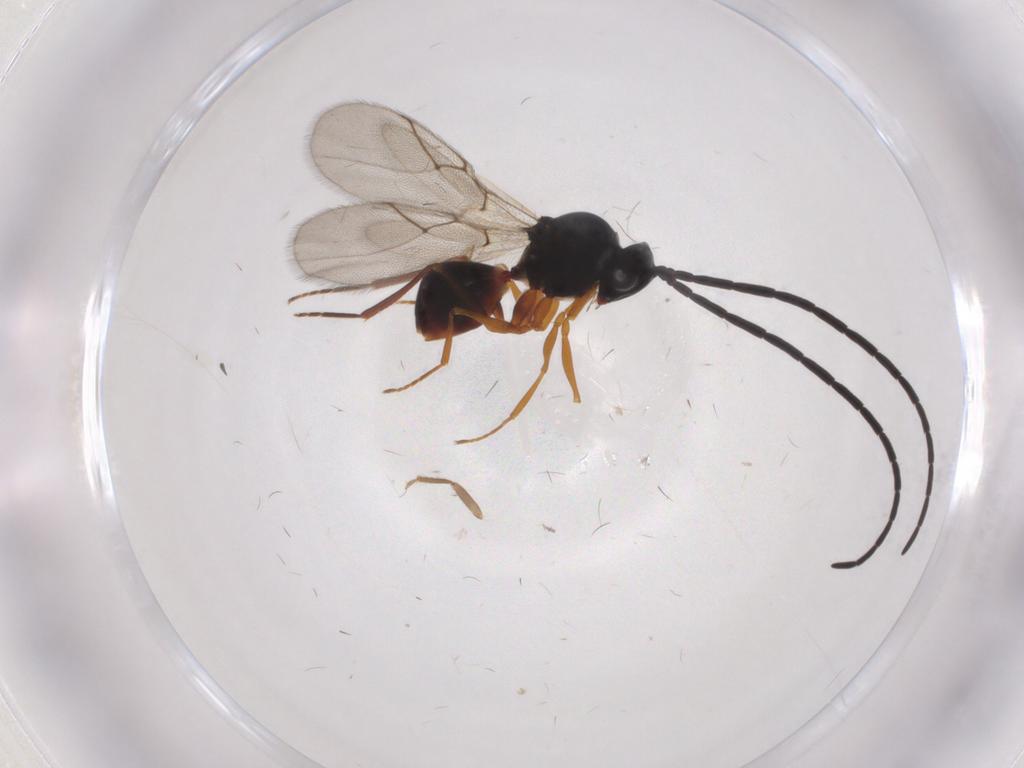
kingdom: Animalia
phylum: Arthropoda
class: Insecta
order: Hymenoptera
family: Figitidae
